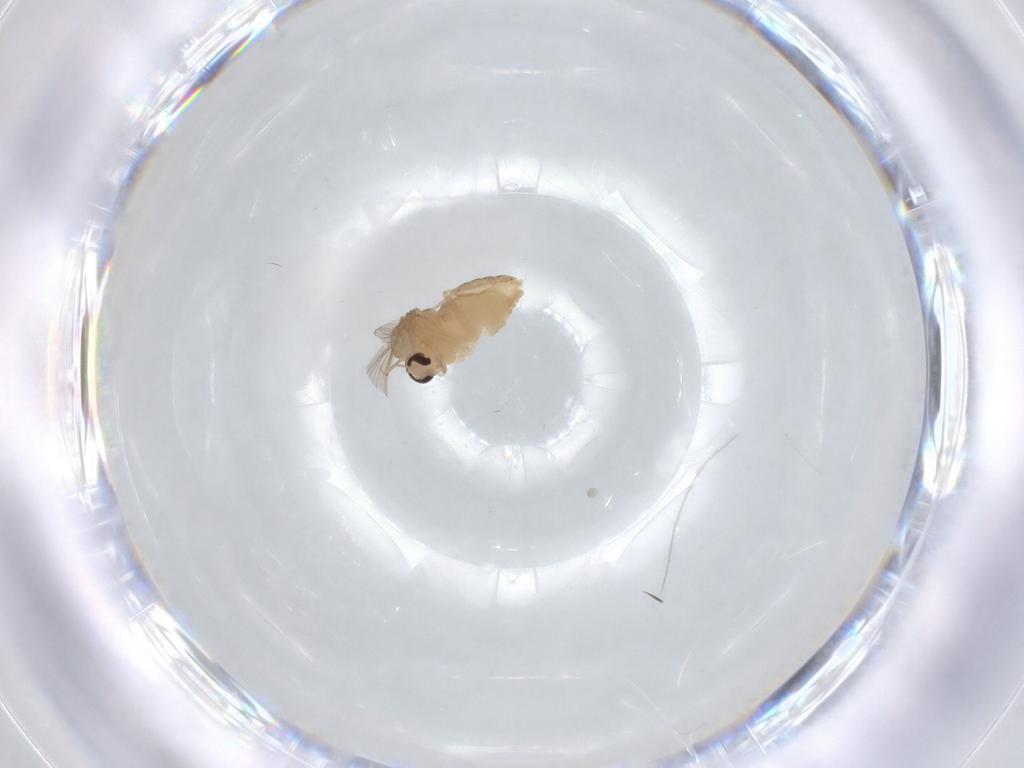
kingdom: Animalia
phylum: Arthropoda
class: Insecta
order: Diptera
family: Chironomidae
